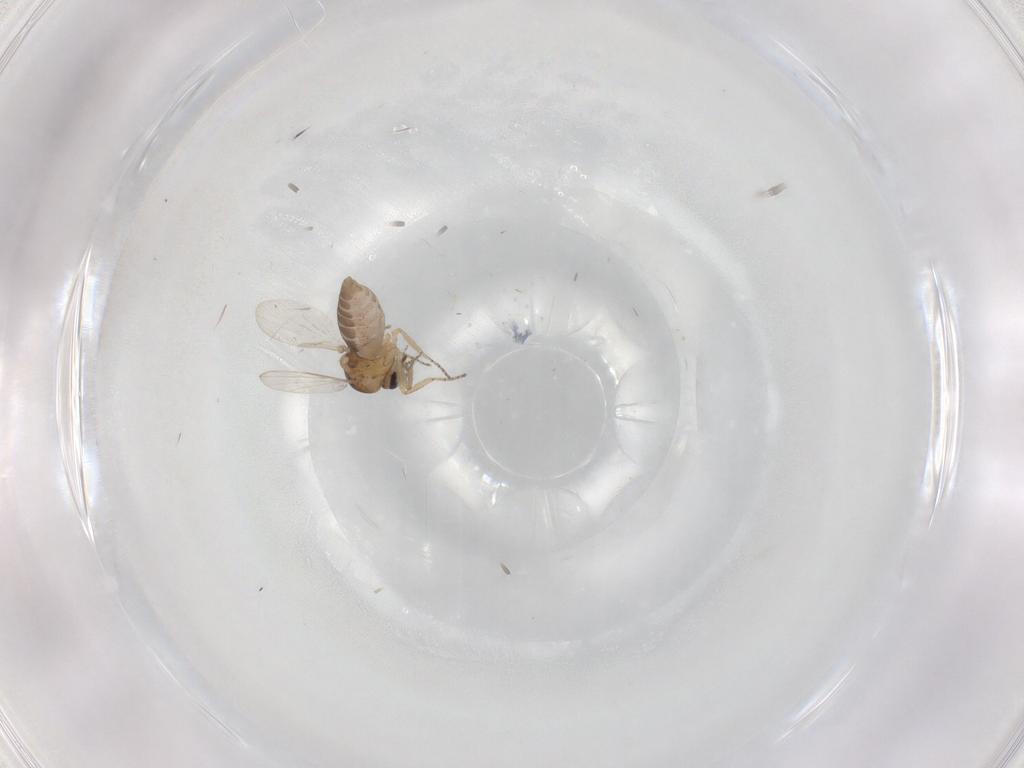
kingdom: Animalia
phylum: Arthropoda
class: Insecta
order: Diptera
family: Ceratopogonidae
